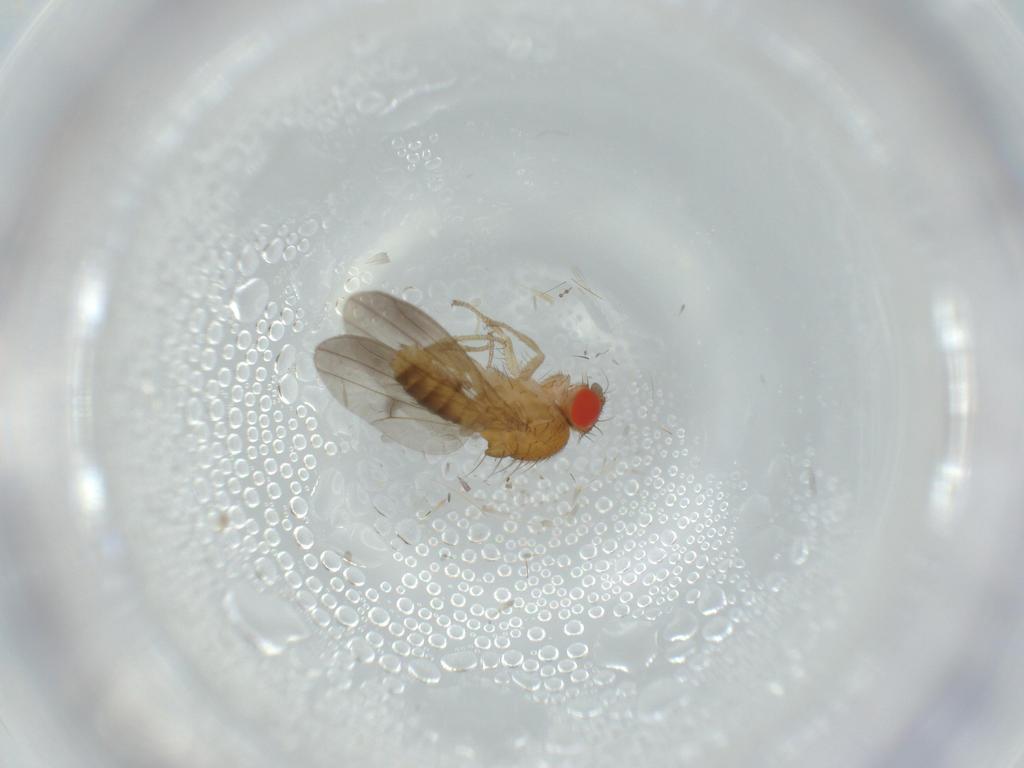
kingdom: Animalia
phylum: Arthropoda
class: Insecta
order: Diptera
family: Drosophilidae
